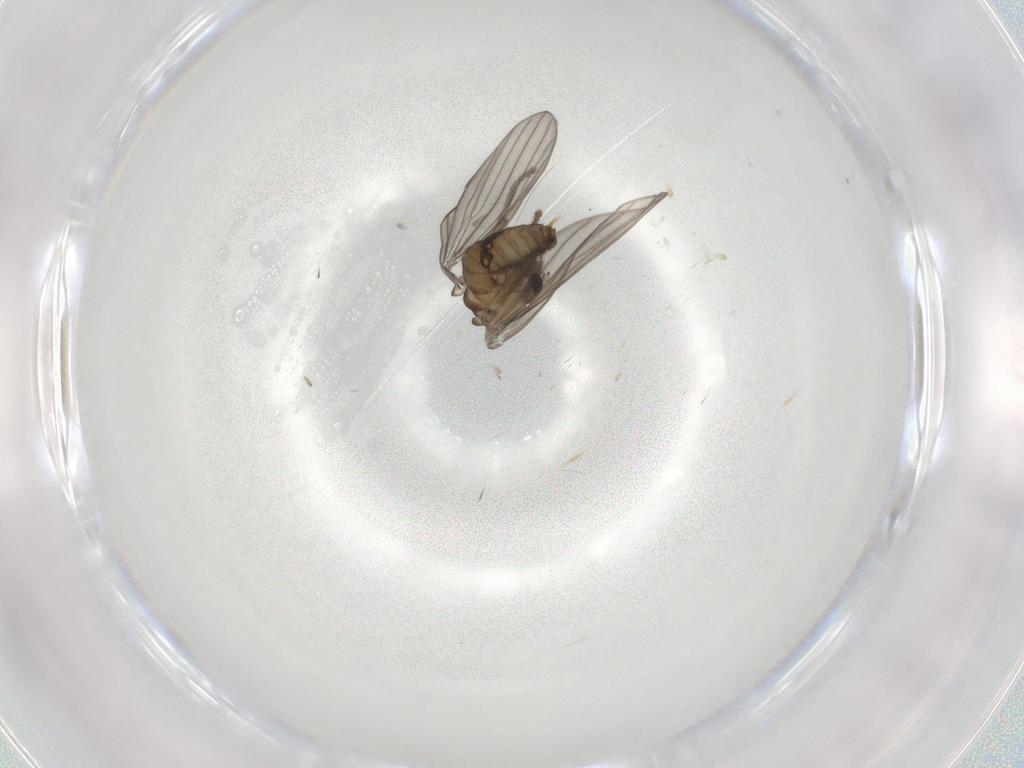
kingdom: Animalia
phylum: Arthropoda
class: Insecta
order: Diptera
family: Psychodidae
